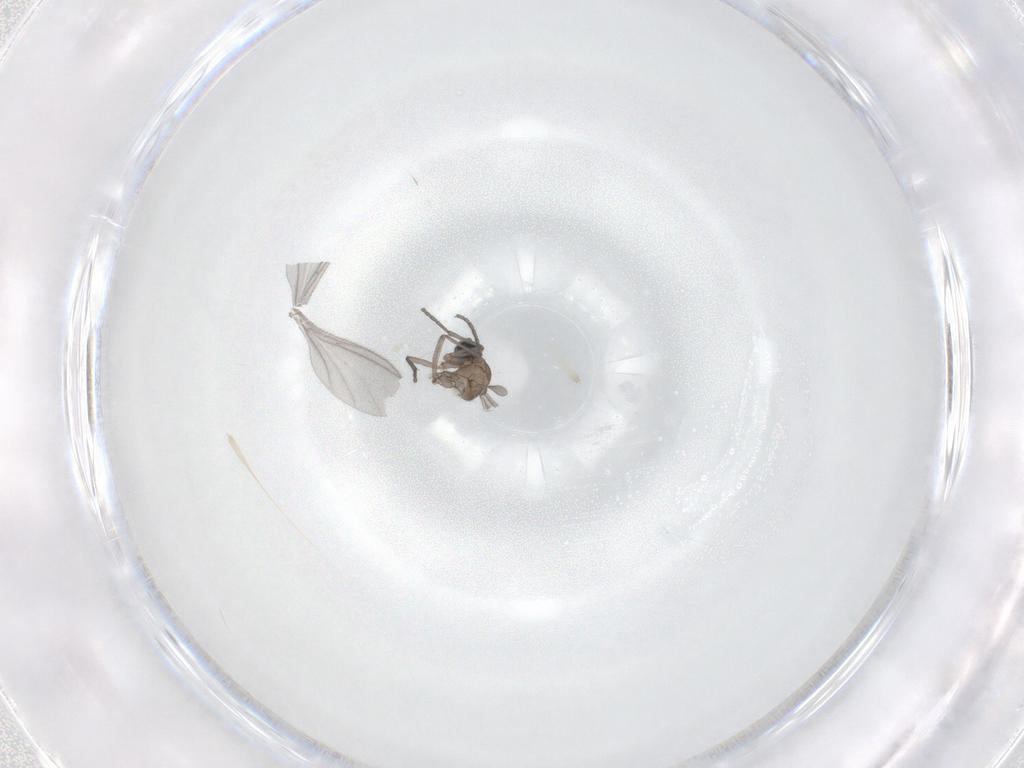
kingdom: Animalia
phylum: Arthropoda
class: Insecta
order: Diptera
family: Sciaridae
